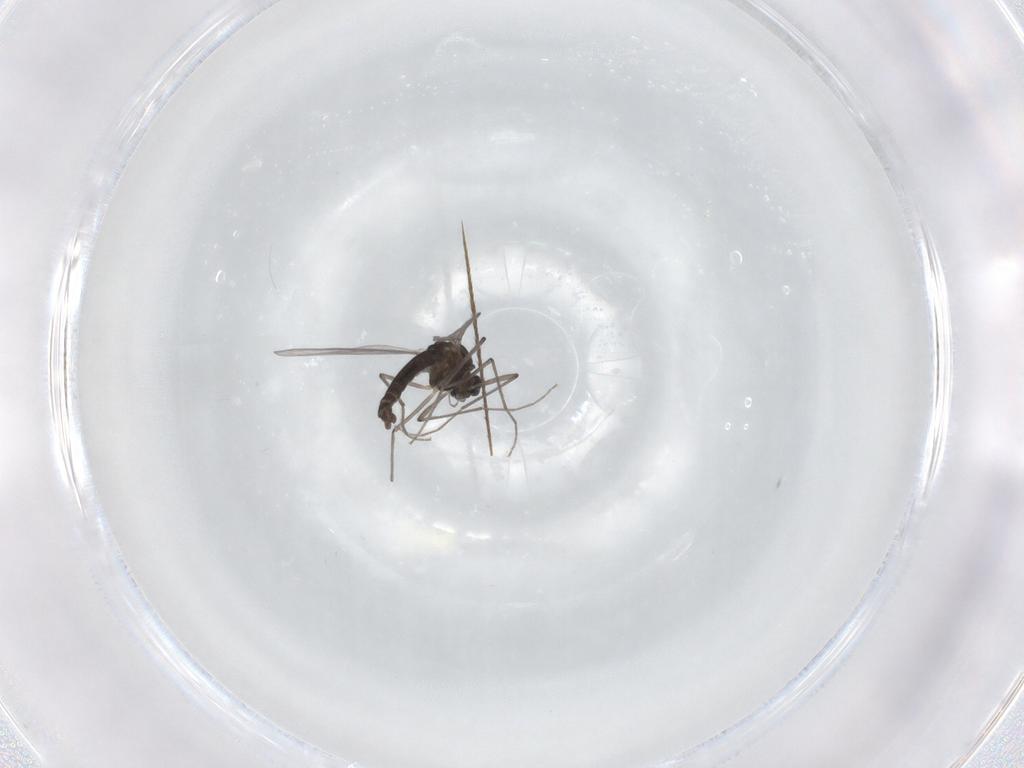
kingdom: Animalia
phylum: Arthropoda
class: Insecta
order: Diptera
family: Chironomidae
